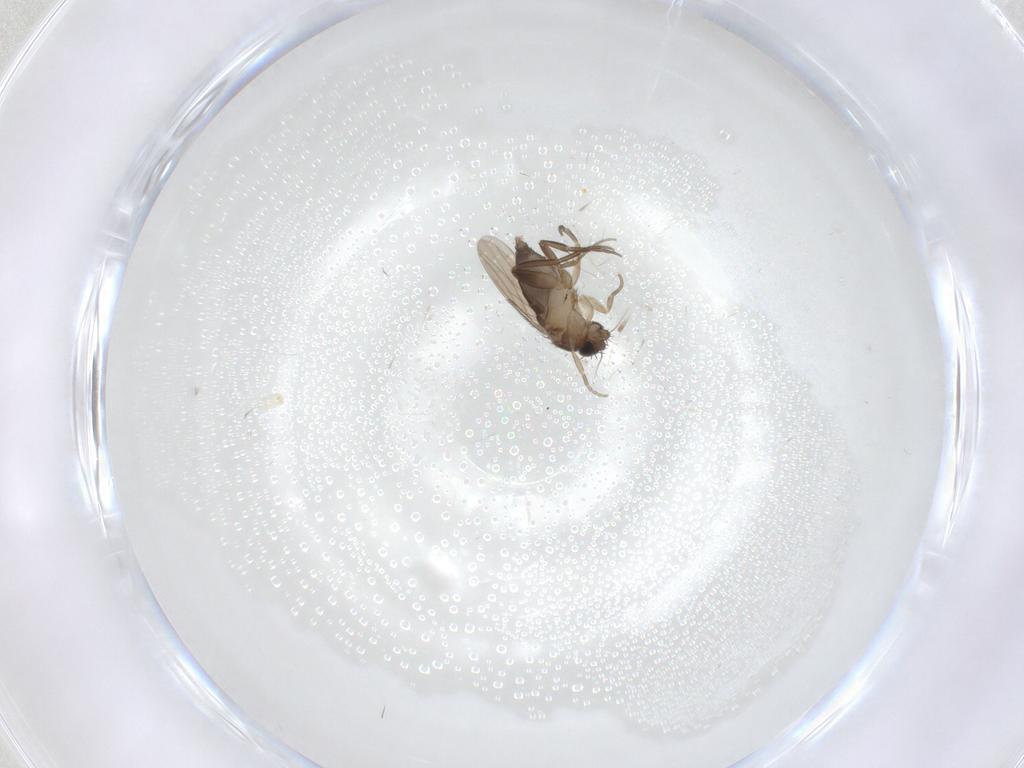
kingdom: Animalia
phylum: Arthropoda
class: Insecta
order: Diptera
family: Phoridae
